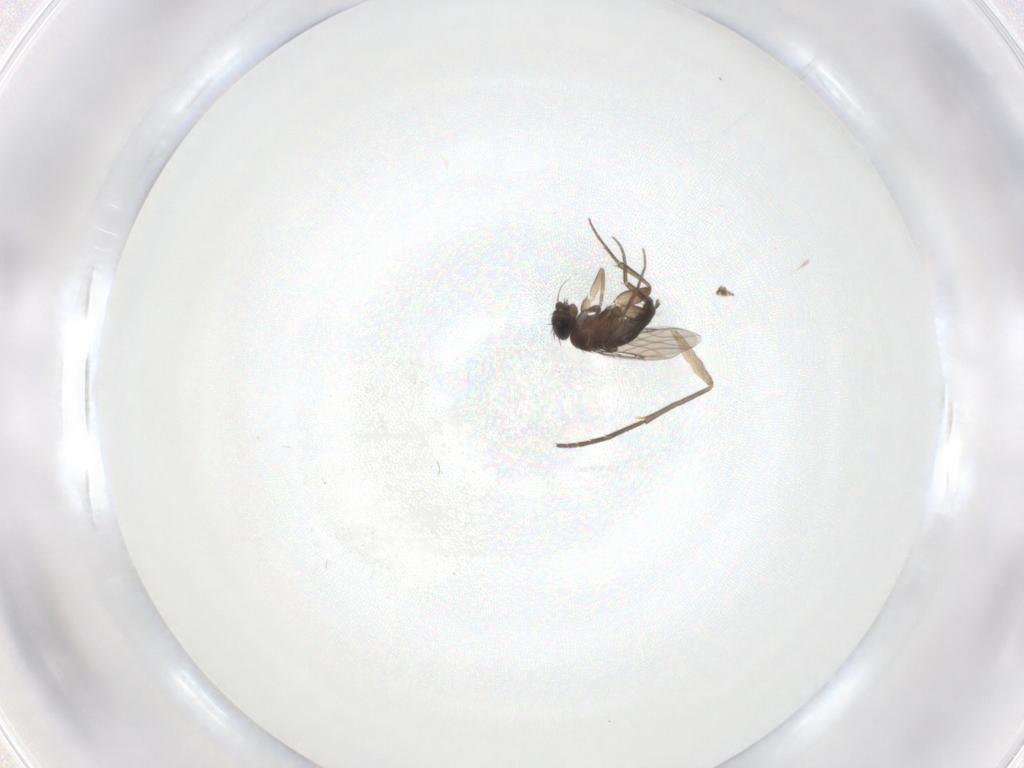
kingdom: Animalia
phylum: Arthropoda
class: Insecta
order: Diptera
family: Sciaridae
